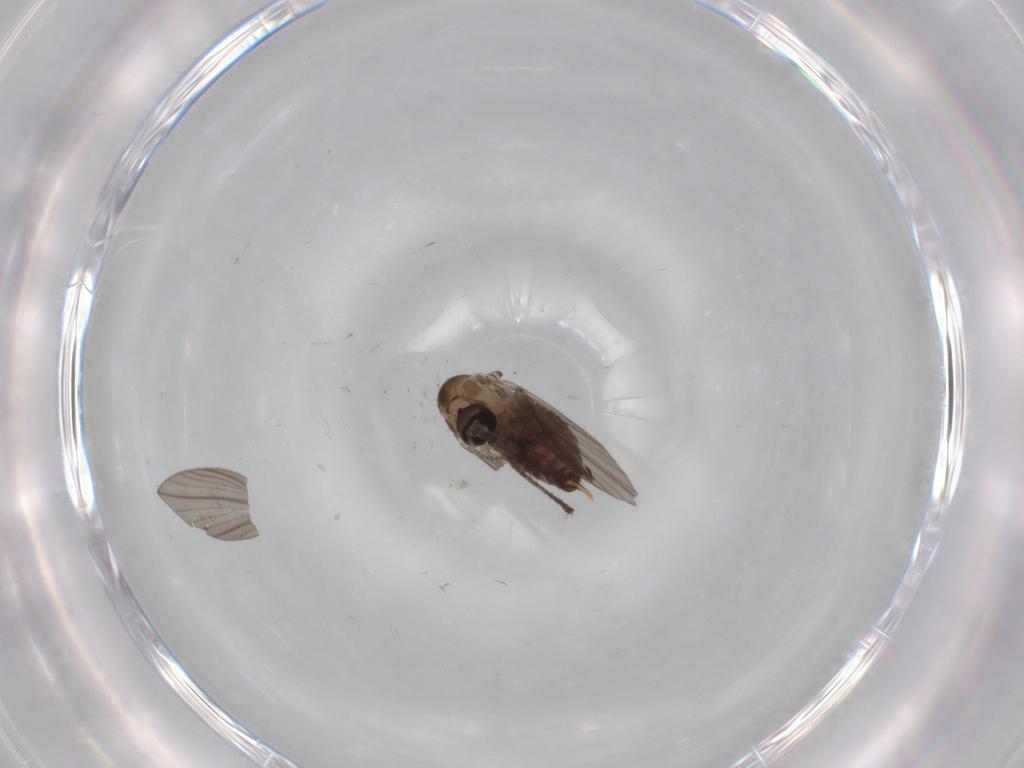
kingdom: Animalia
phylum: Arthropoda
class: Insecta
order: Diptera
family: Psychodidae
